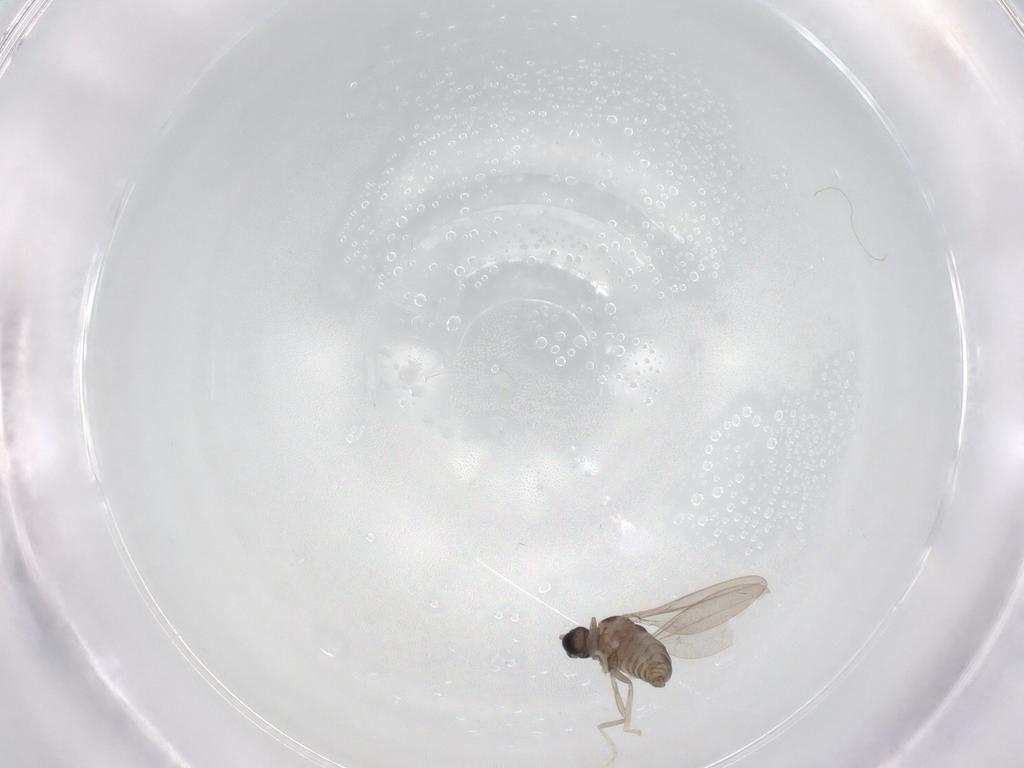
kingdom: Animalia
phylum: Arthropoda
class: Insecta
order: Diptera
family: Cecidomyiidae
